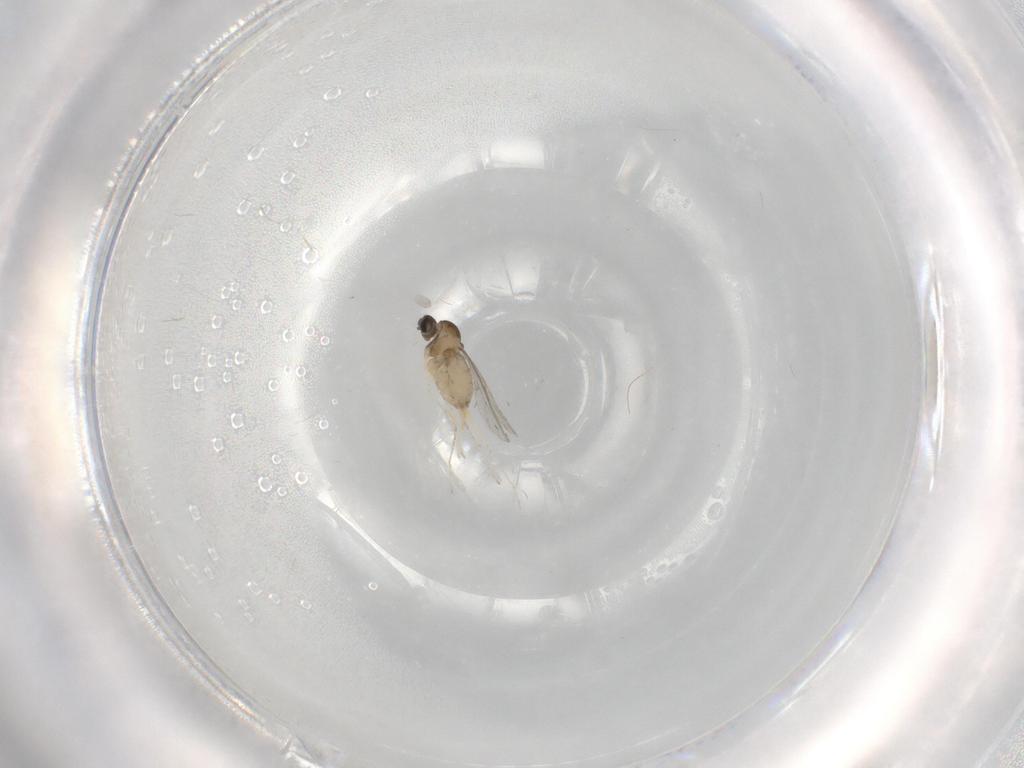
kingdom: Animalia
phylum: Arthropoda
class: Insecta
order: Diptera
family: Cecidomyiidae
